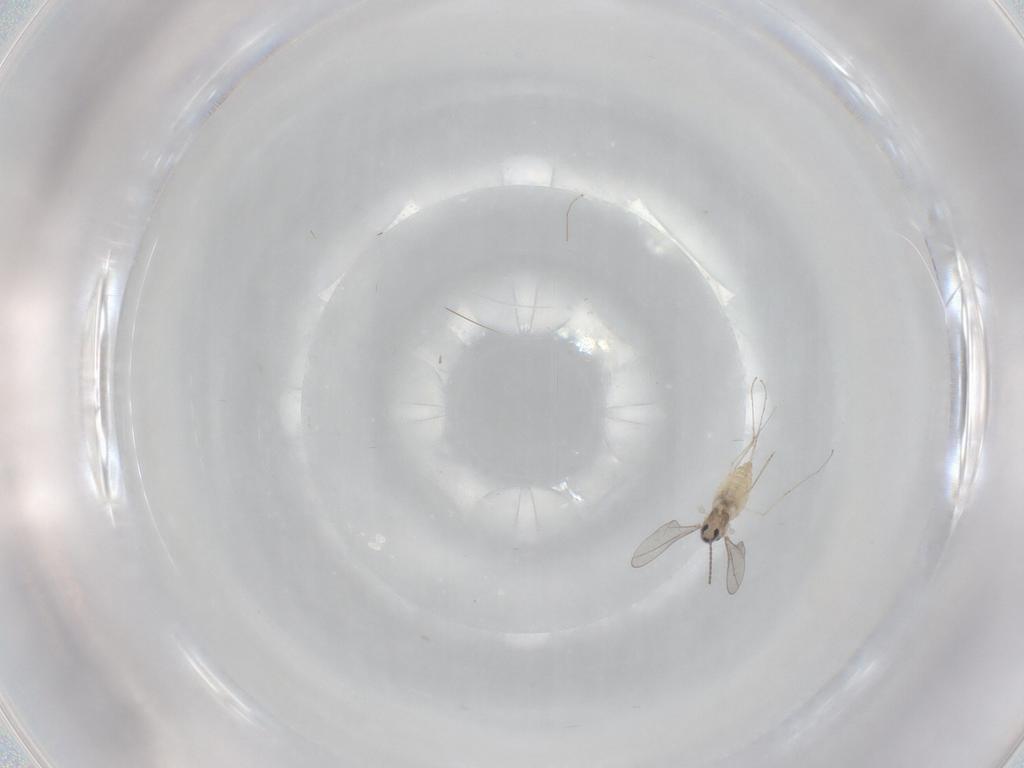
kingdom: Animalia
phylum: Arthropoda
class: Insecta
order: Diptera
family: Cecidomyiidae
